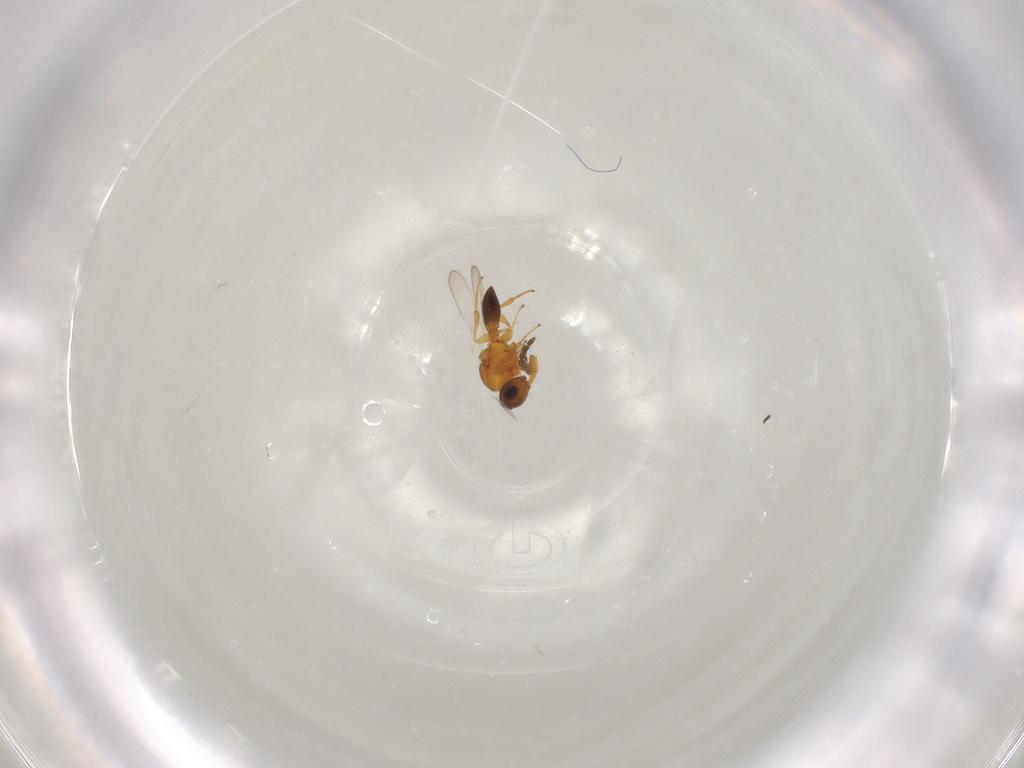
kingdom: Animalia
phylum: Arthropoda
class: Insecta
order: Hymenoptera
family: Platygastridae
